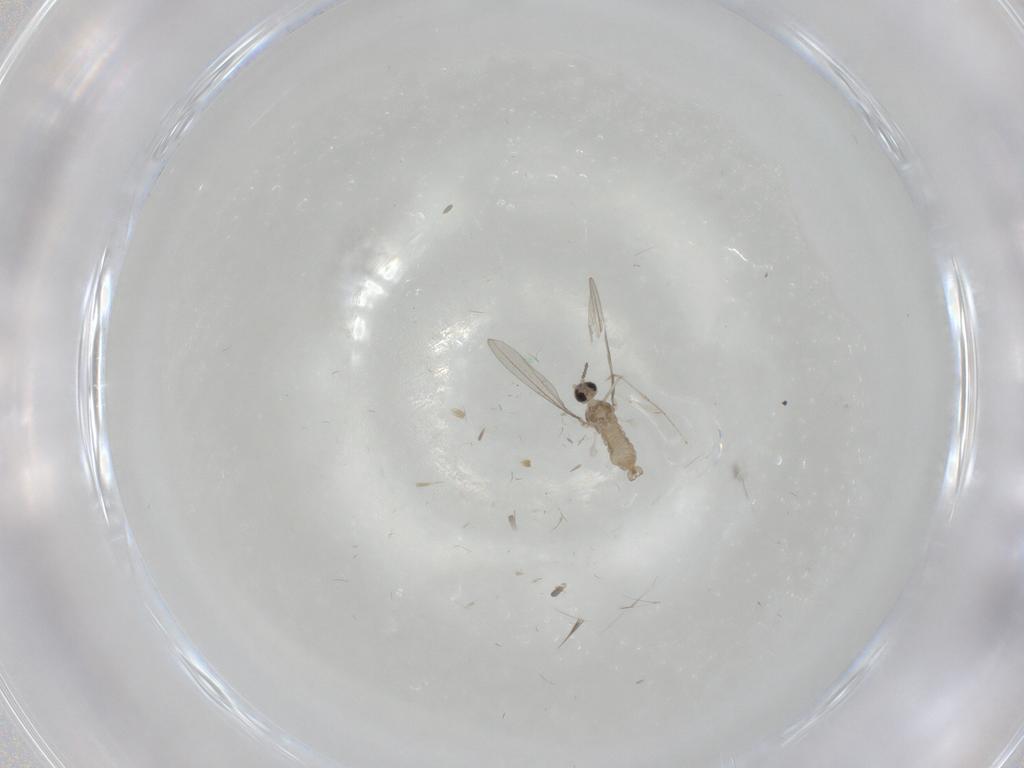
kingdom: Animalia
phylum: Arthropoda
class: Insecta
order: Diptera
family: Cecidomyiidae
